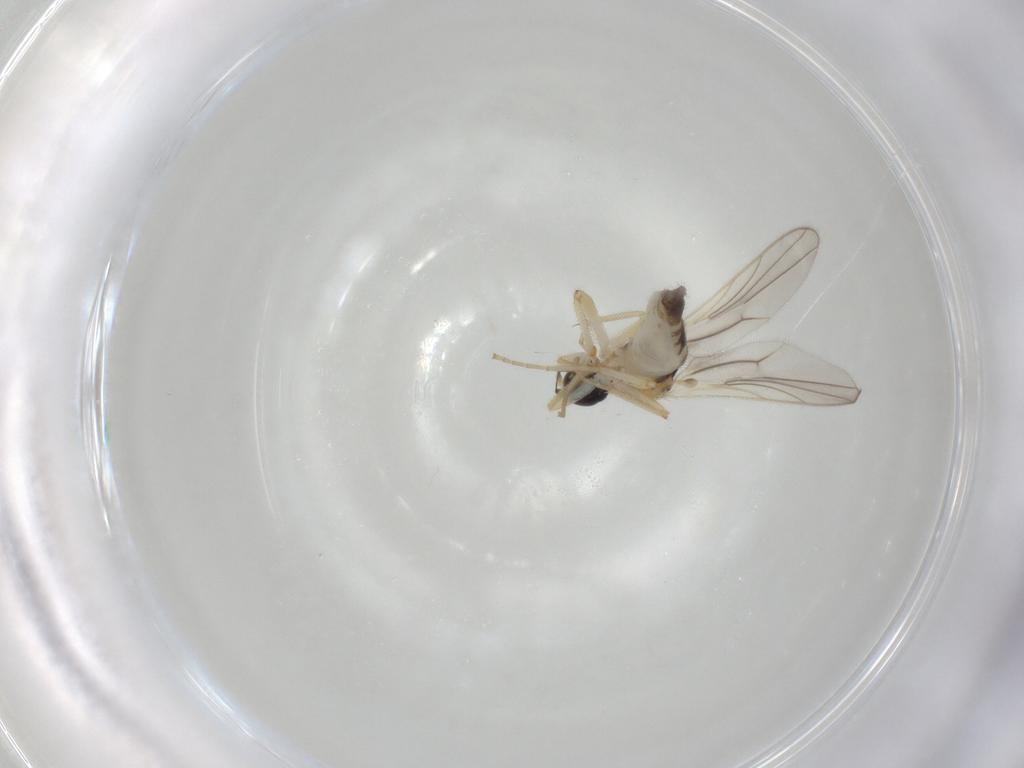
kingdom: Animalia
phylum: Arthropoda
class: Insecta
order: Diptera
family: Hybotidae
